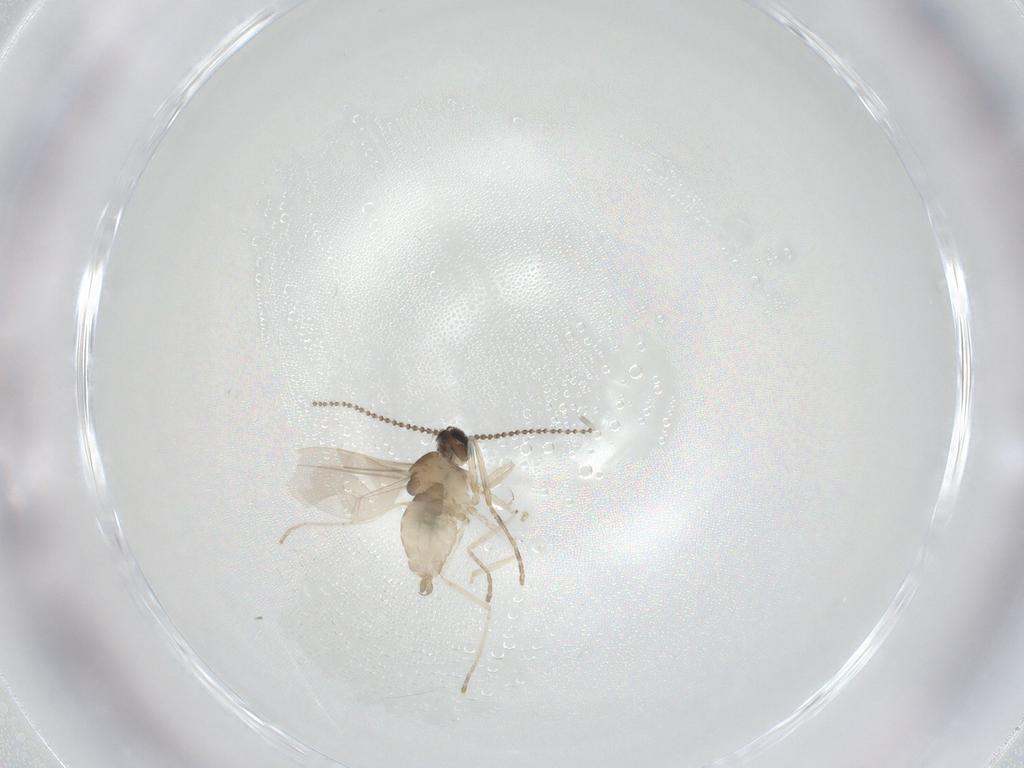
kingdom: Animalia
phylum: Arthropoda
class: Insecta
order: Diptera
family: Cecidomyiidae
